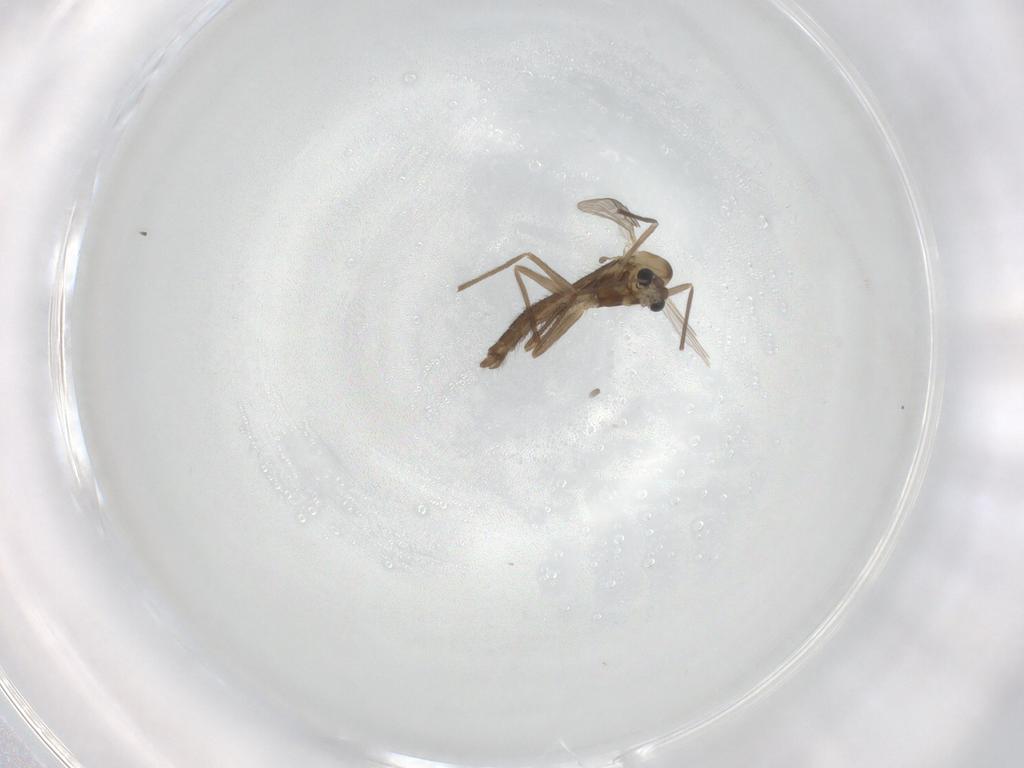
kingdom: Animalia
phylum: Arthropoda
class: Insecta
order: Diptera
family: Chironomidae
